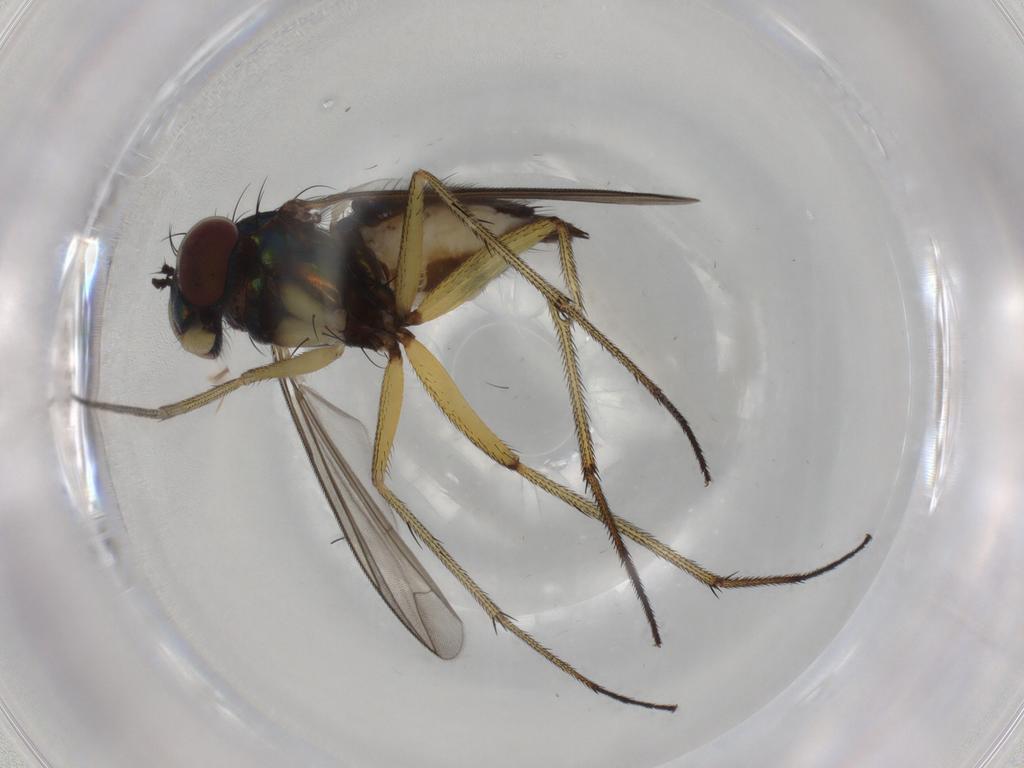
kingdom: Animalia
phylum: Arthropoda
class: Insecta
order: Diptera
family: Dolichopodidae
